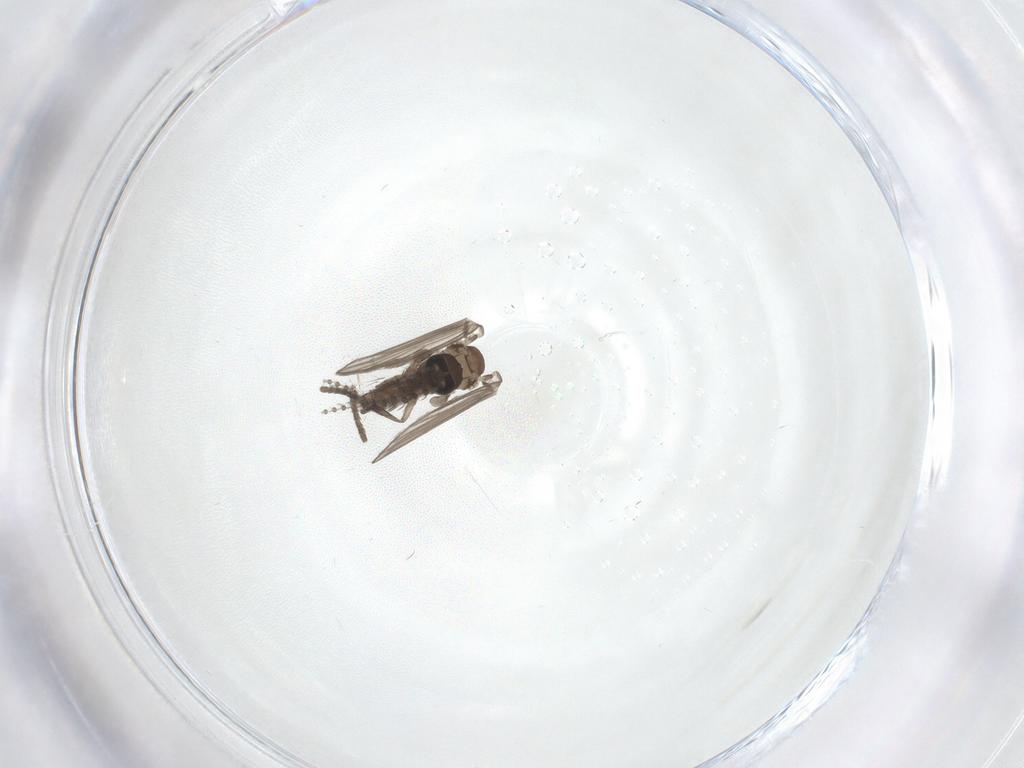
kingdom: Animalia
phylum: Arthropoda
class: Insecta
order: Diptera
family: Psychodidae
